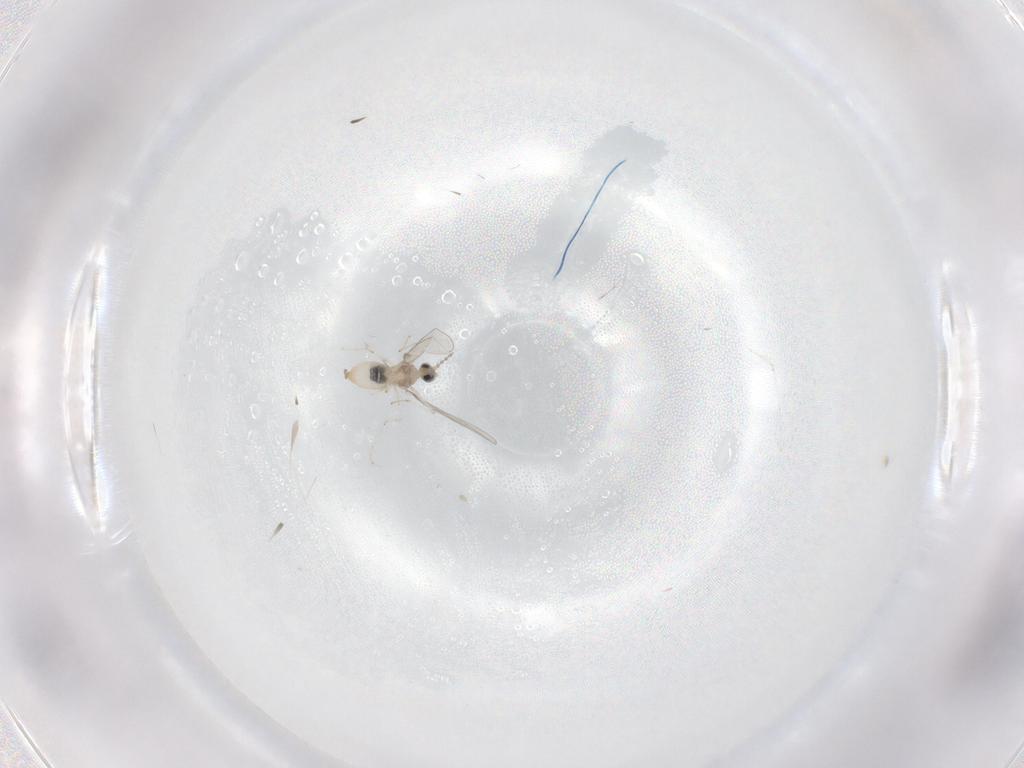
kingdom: Animalia
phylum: Arthropoda
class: Insecta
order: Diptera
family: Cecidomyiidae
